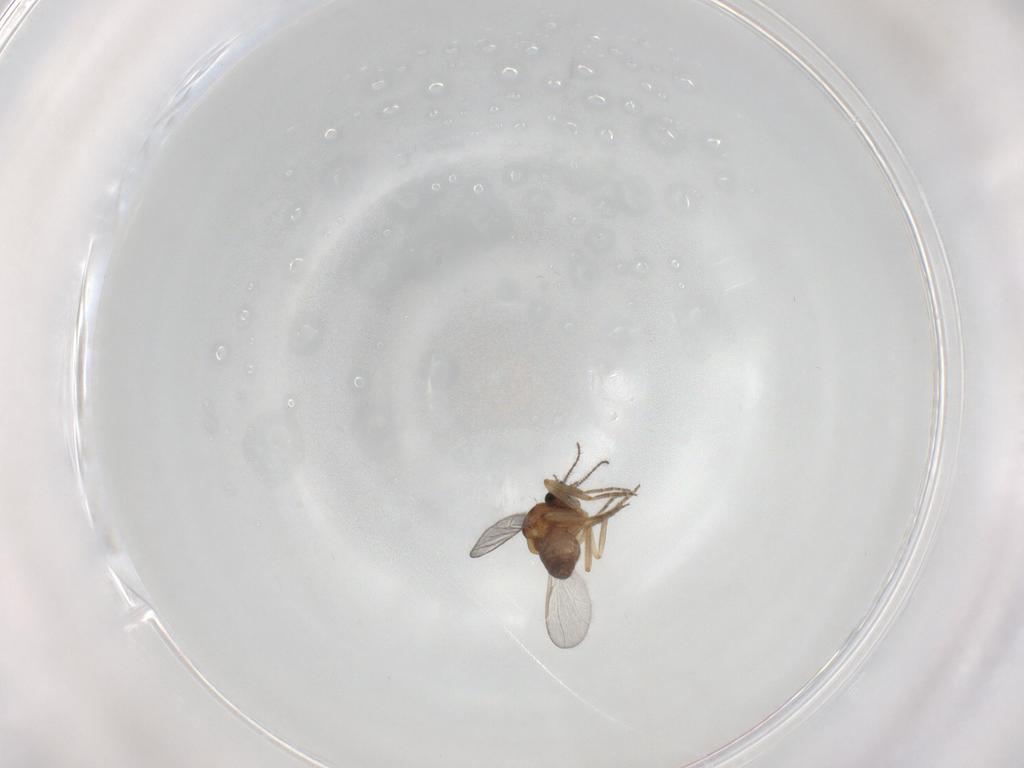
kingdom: Animalia
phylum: Arthropoda
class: Insecta
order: Diptera
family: Ceratopogonidae
